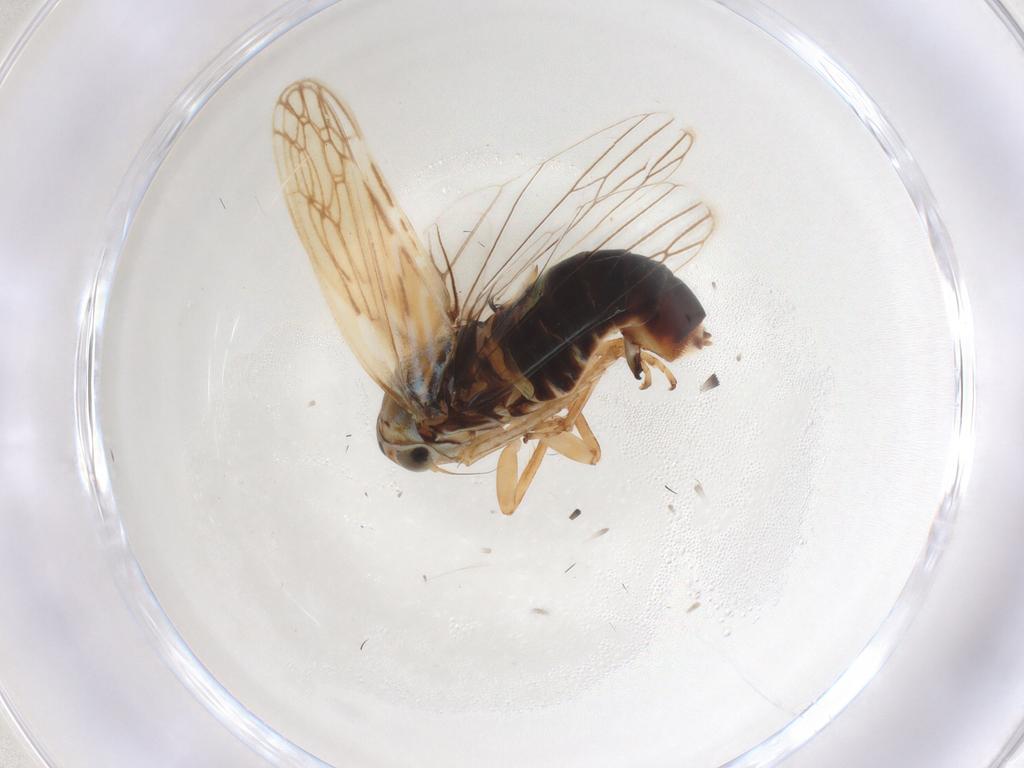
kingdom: Animalia
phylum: Arthropoda
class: Insecta
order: Hemiptera
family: Cicadellidae
